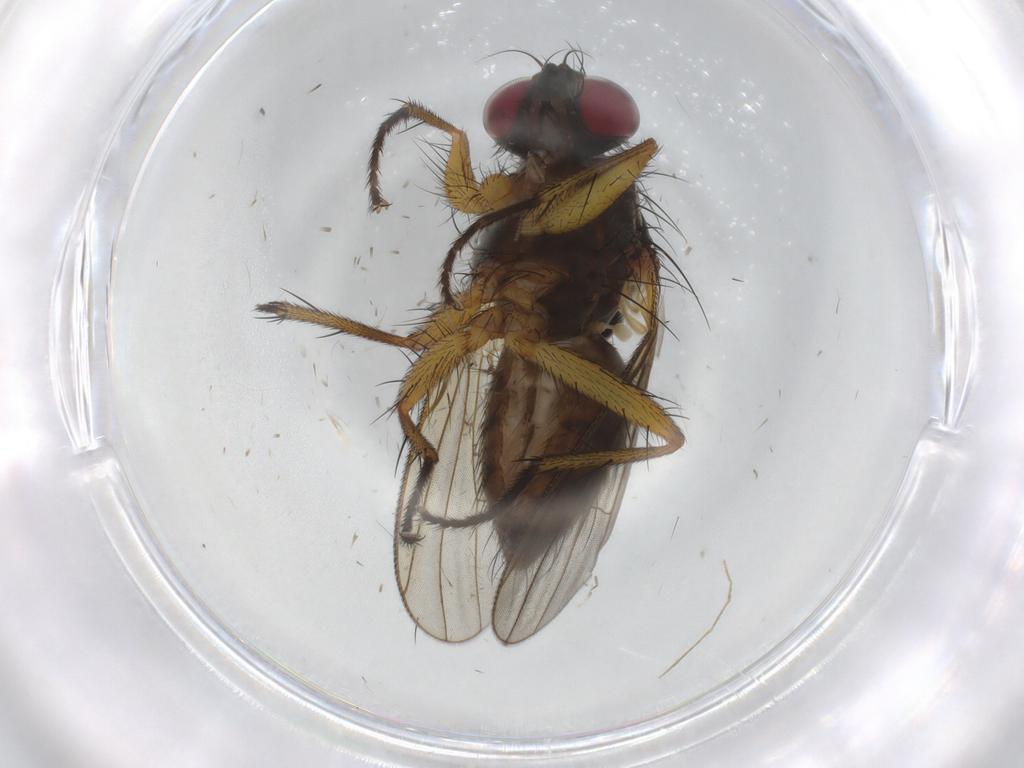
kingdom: Animalia
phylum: Arthropoda
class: Insecta
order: Diptera
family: Muscidae
